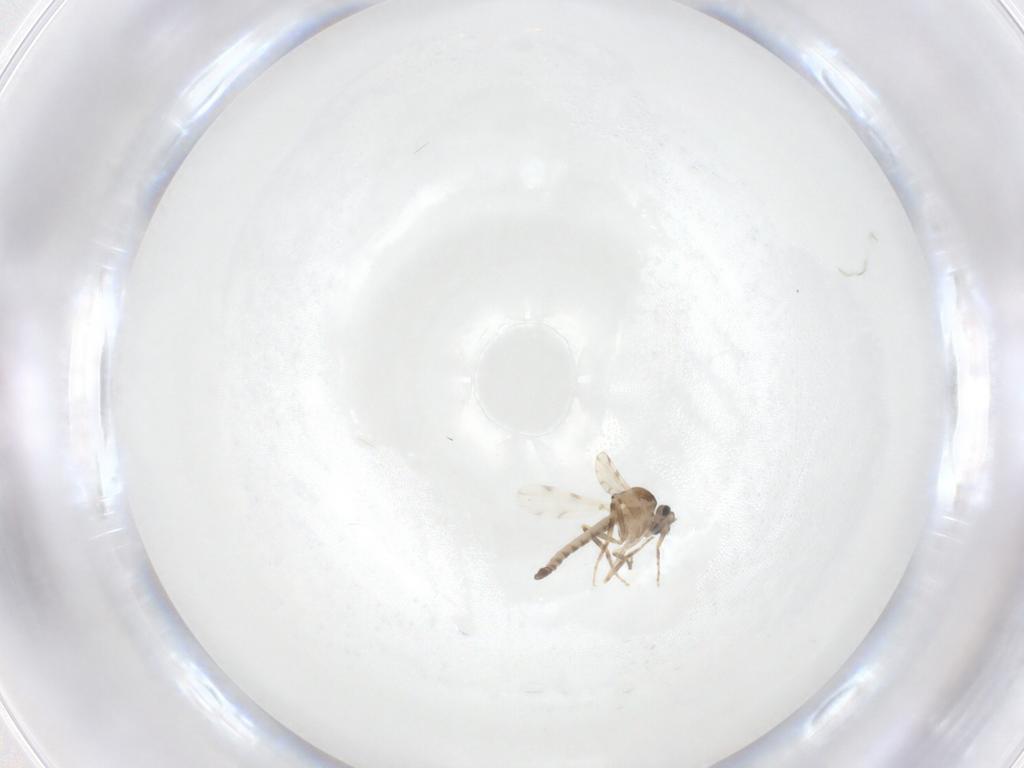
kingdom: Animalia
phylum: Arthropoda
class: Insecta
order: Diptera
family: Ceratopogonidae
